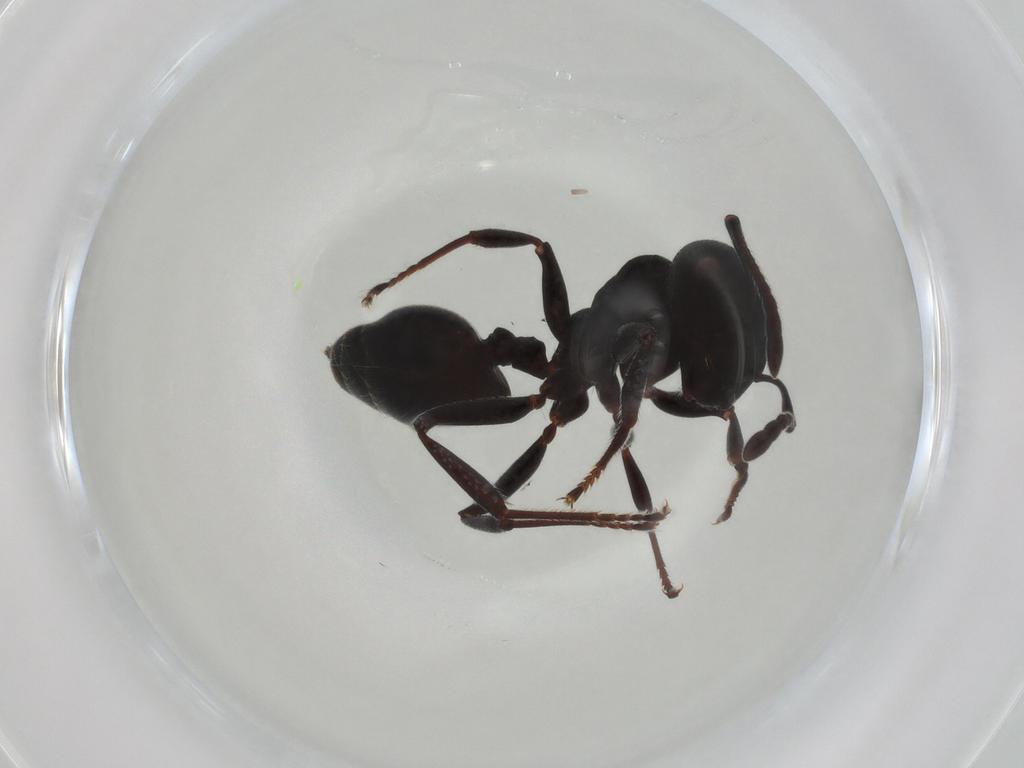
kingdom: Animalia
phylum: Arthropoda
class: Insecta
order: Hymenoptera
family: Formicidae
